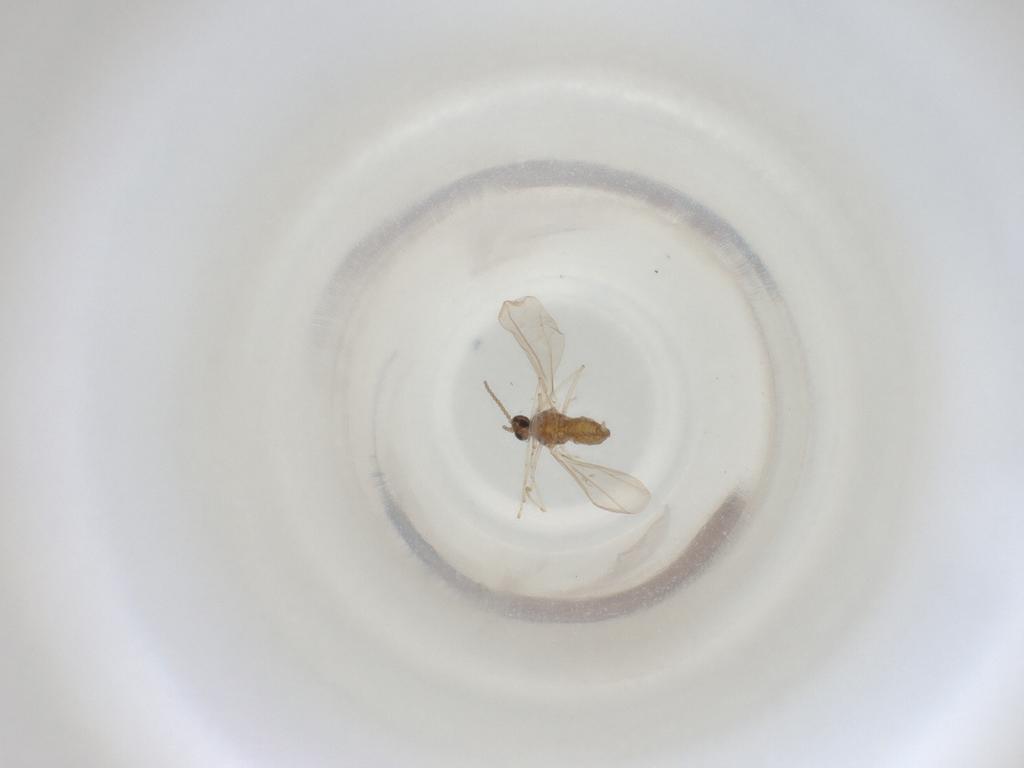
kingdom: Animalia
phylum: Arthropoda
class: Insecta
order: Diptera
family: Cecidomyiidae
